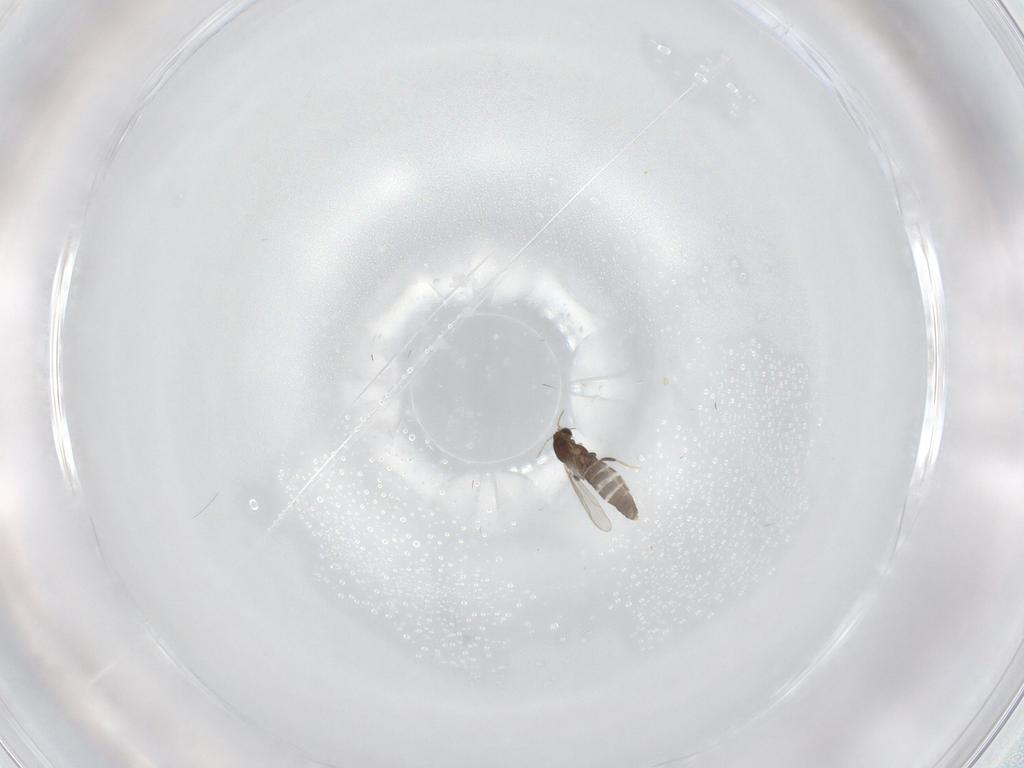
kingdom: Animalia
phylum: Arthropoda
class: Insecta
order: Diptera
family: Chironomidae
